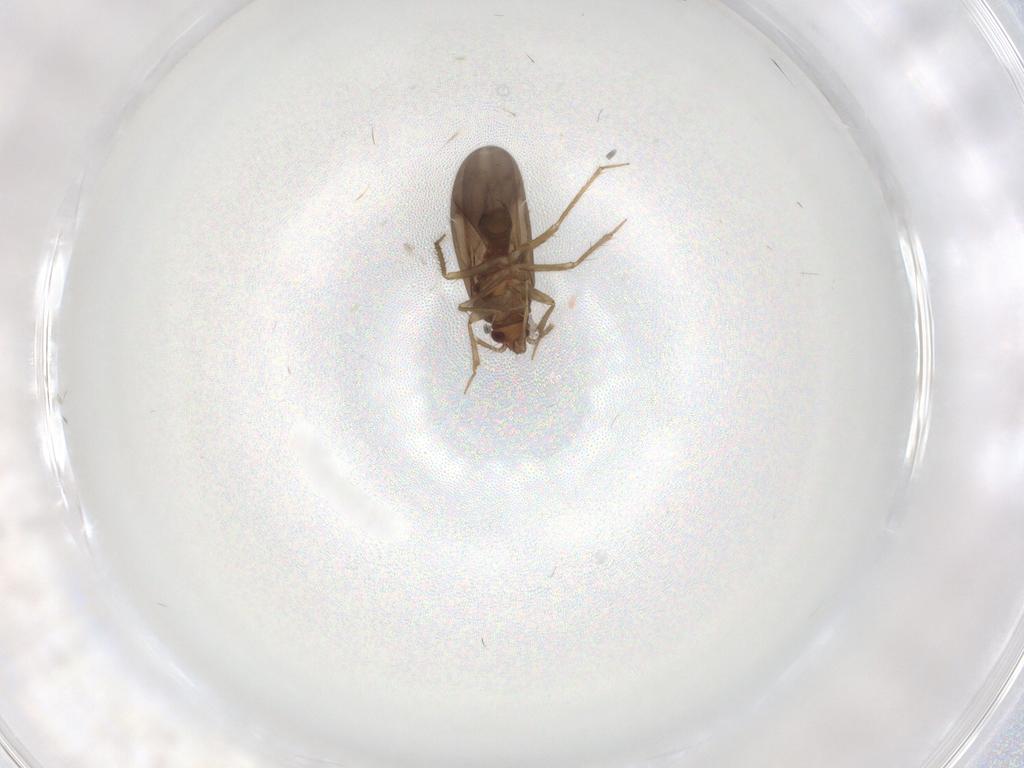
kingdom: Animalia
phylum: Arthropoda
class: Insecta
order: Hemiptera
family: Ceratocombidae
